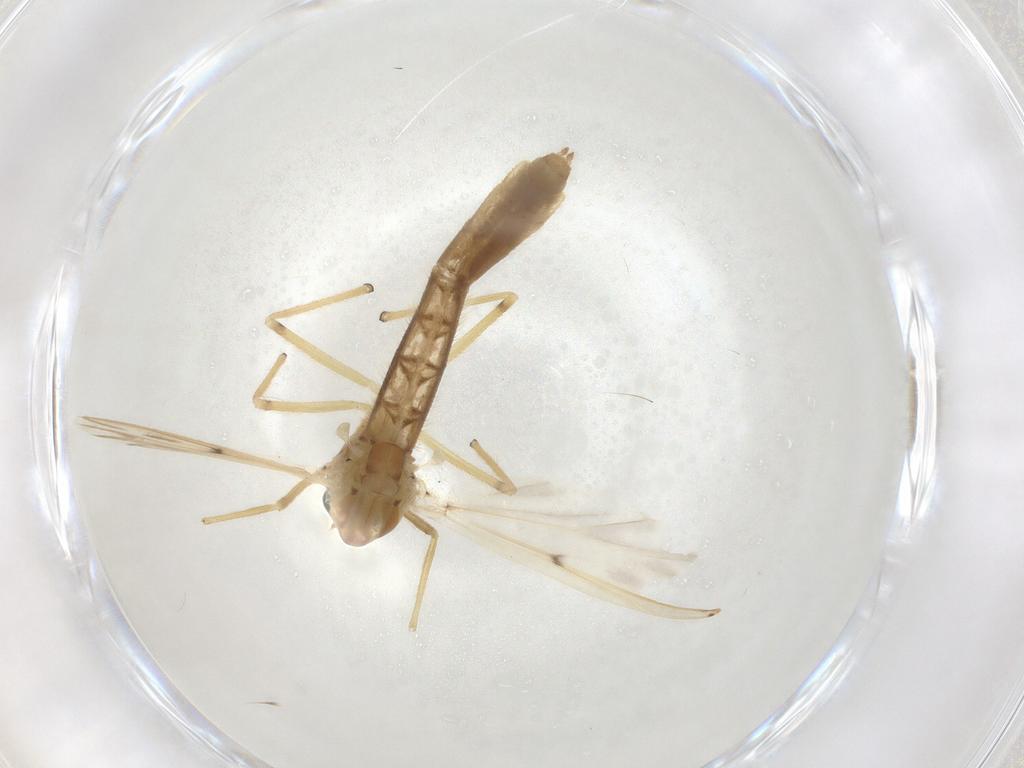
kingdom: Animalia
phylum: Arthropoda
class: Insecta
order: Diptera
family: Chironomidae
